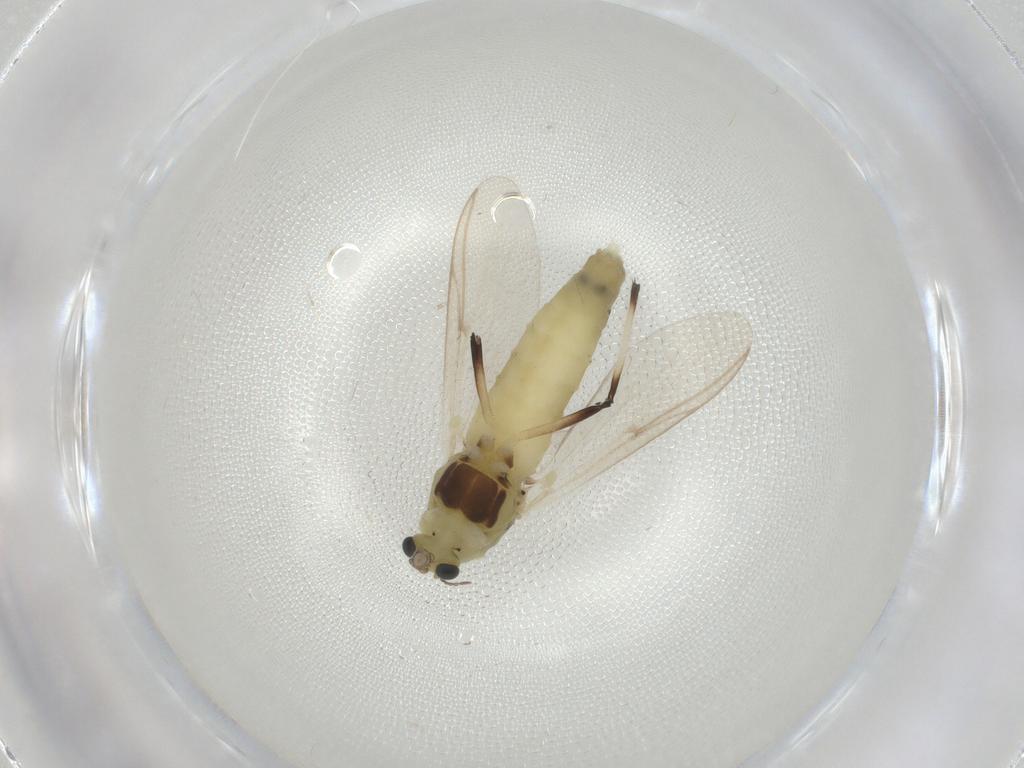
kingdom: Animalia
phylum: Arthropoda
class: Insecta
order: Diptera
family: Chironomidae
